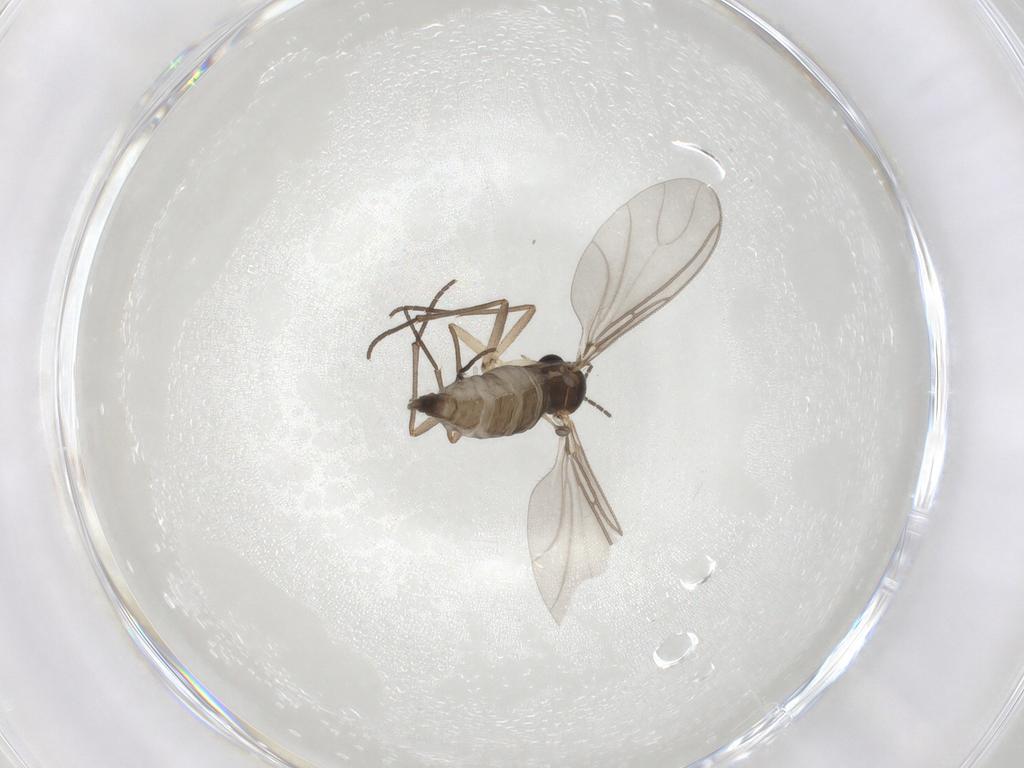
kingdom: Animalia
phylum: Arthropoda
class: Insecta
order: Diptera
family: Sciaridae
